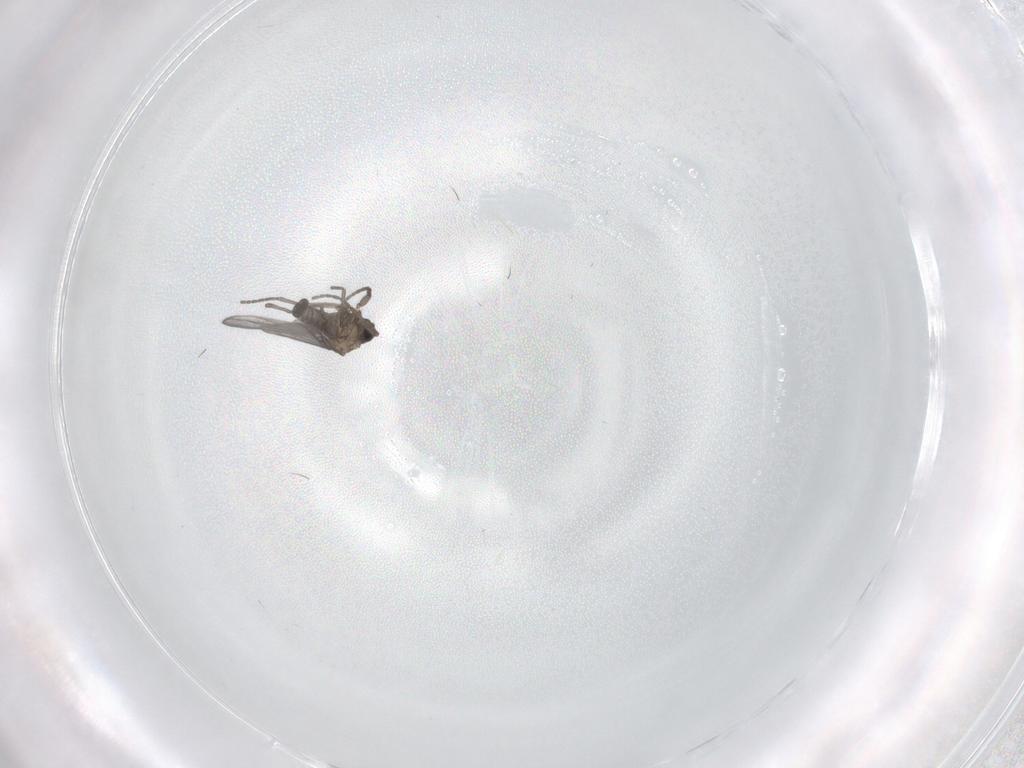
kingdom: Animalia
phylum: Arthropoda
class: Insecta
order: Diptera
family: Sciaridae
